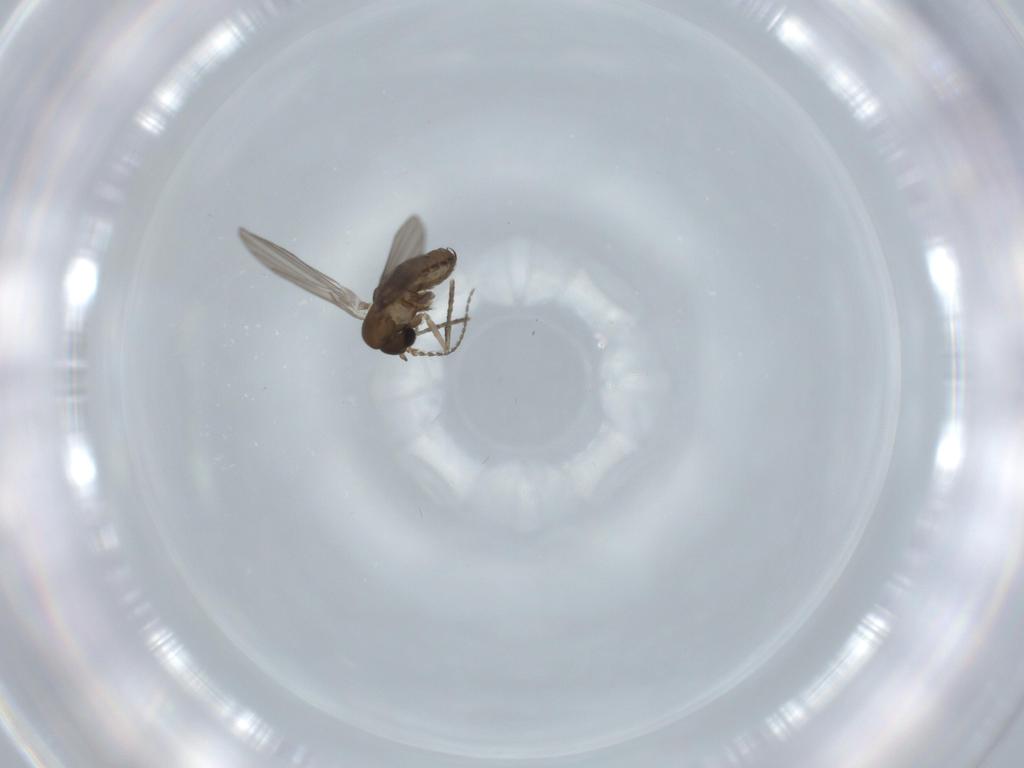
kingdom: Animalia
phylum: Arthropoda
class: Insecta
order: Diptera
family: Psychodidae
